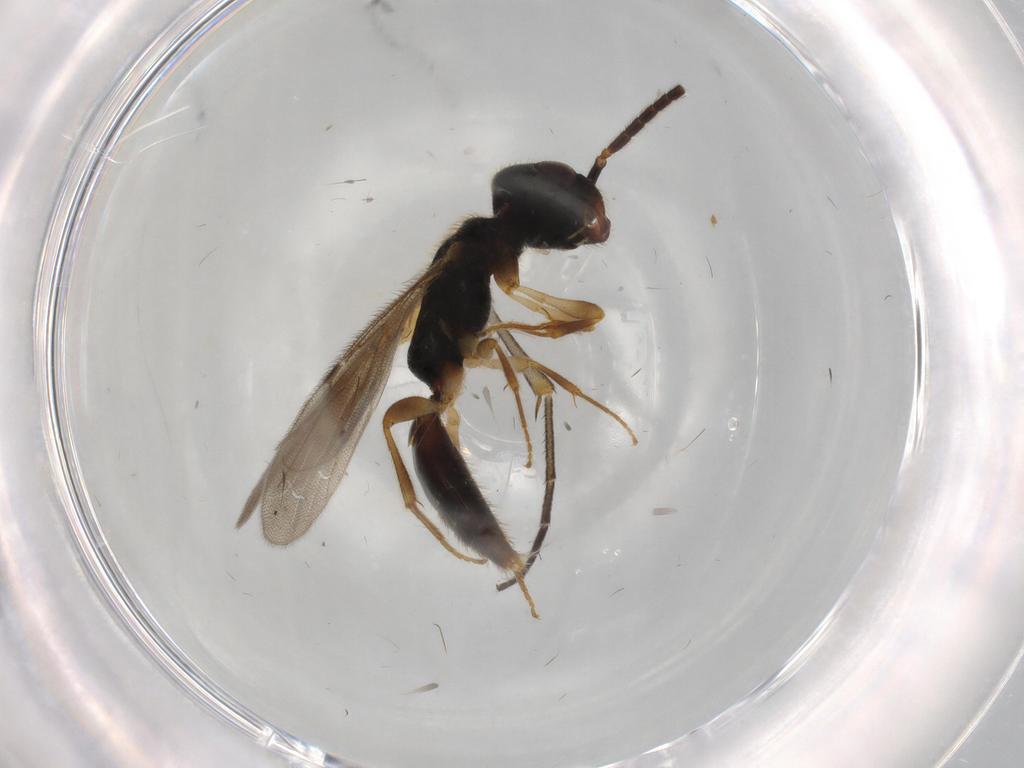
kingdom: Animalia
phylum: Arthropoda
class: Insecta
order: Hymenoptera
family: Bethylidae
